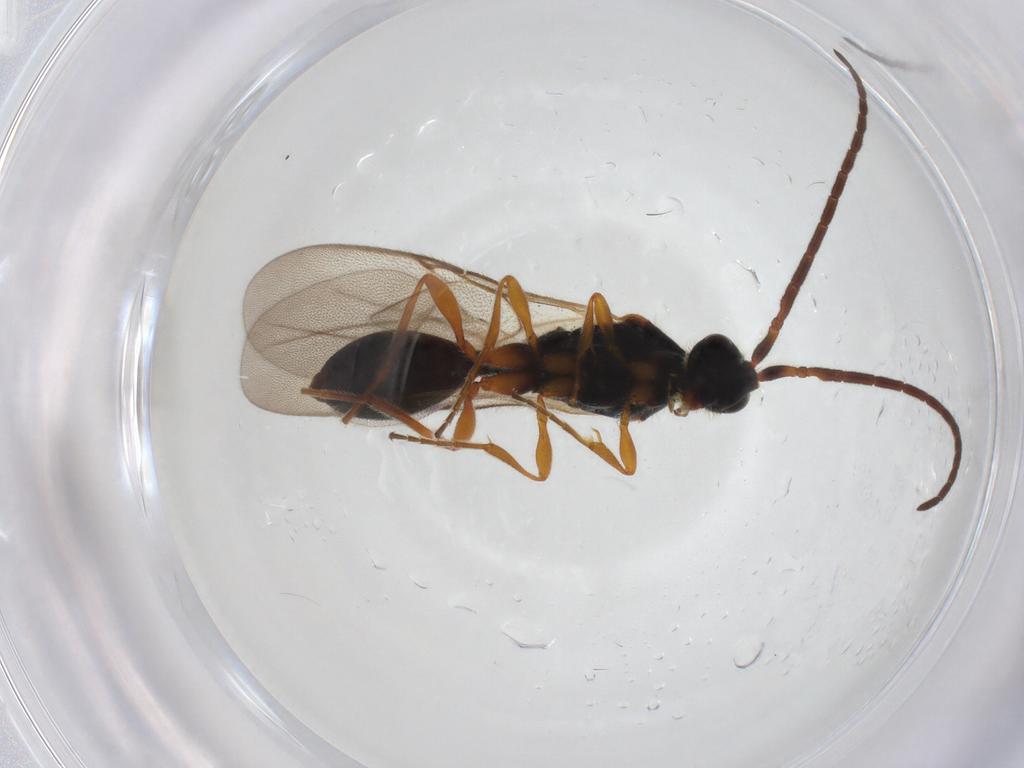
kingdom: Animalia
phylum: Arthropoda
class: Insecta
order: Hymenoptera
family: Diapriidae
